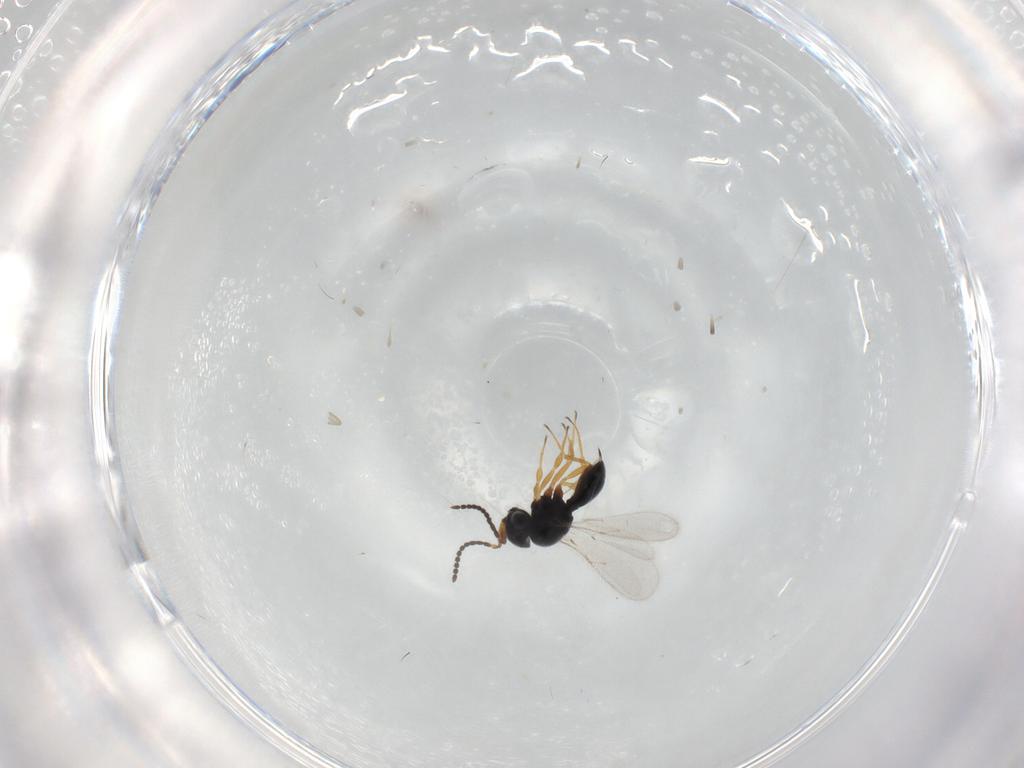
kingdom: Animalia
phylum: Arthropoda
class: Insecta
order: Hymenoptera
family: Scelionidae
